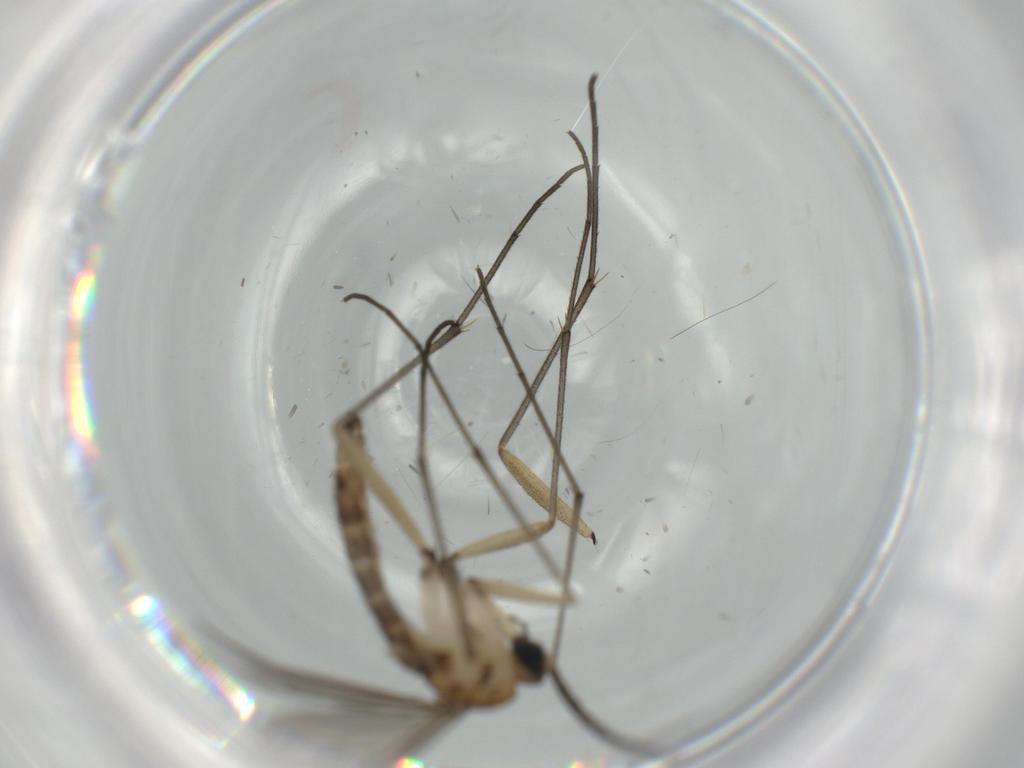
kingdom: Animalia
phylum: Arthropoda
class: Insecta
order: Diptera
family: Sciaridae
